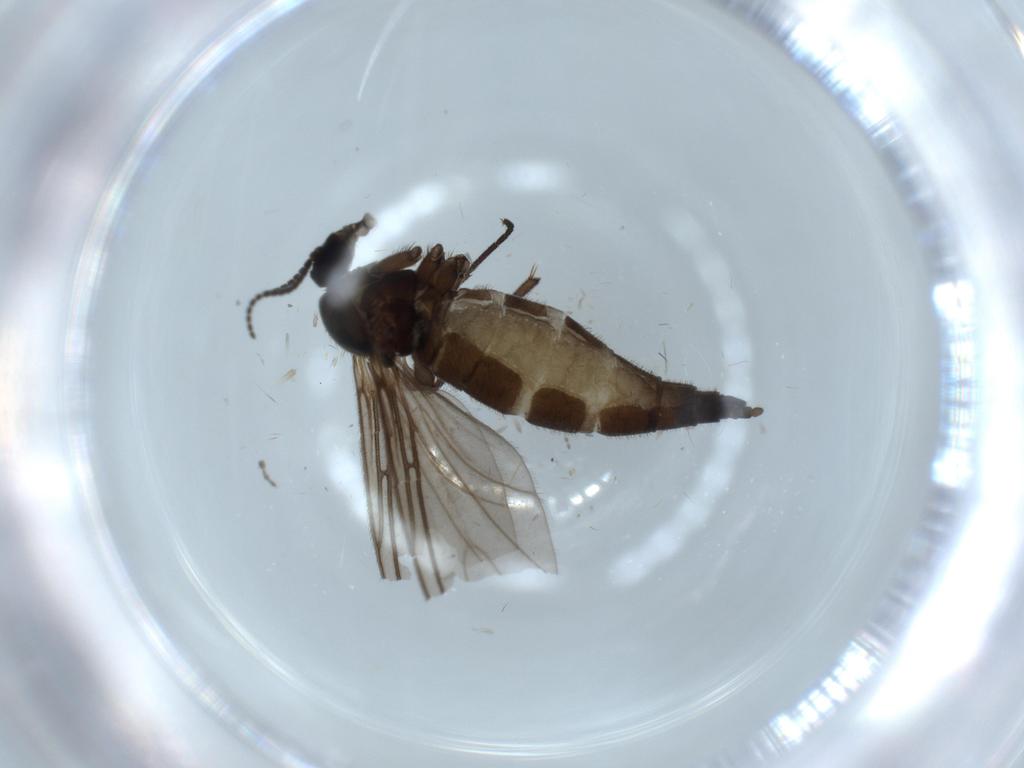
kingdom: Animalia
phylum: Arthropoda
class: Insecta
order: Diptera
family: Sciaridae
